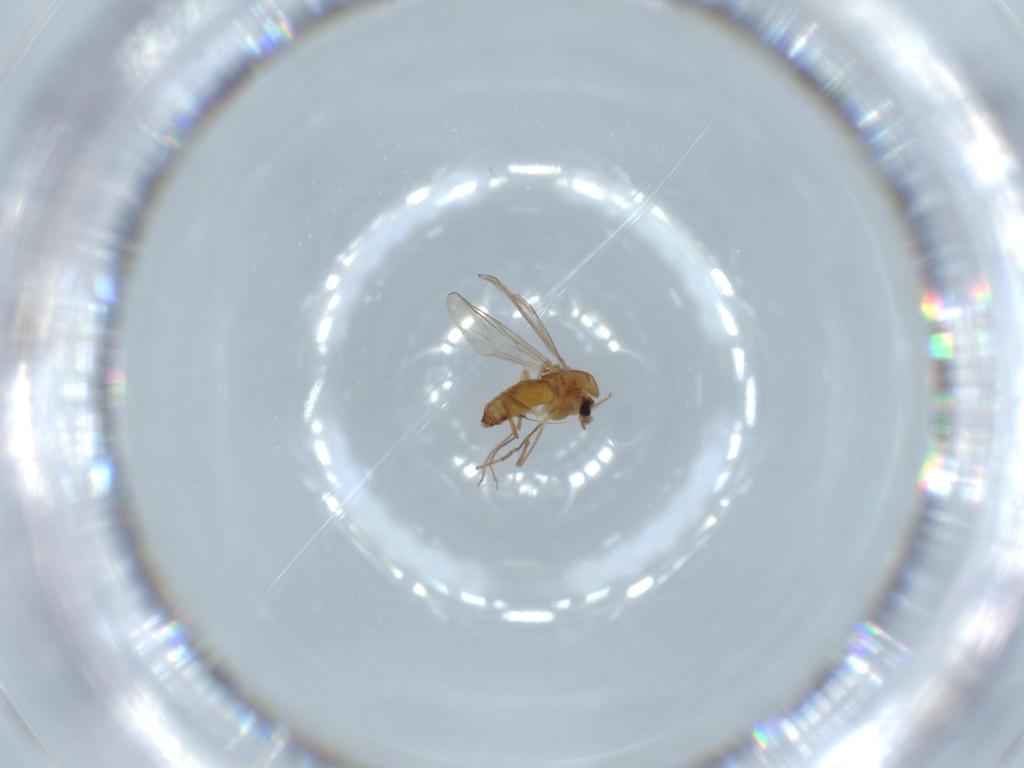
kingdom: Animalia
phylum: Arthropoda
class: Insecta
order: Diptera
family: Chironomidae
